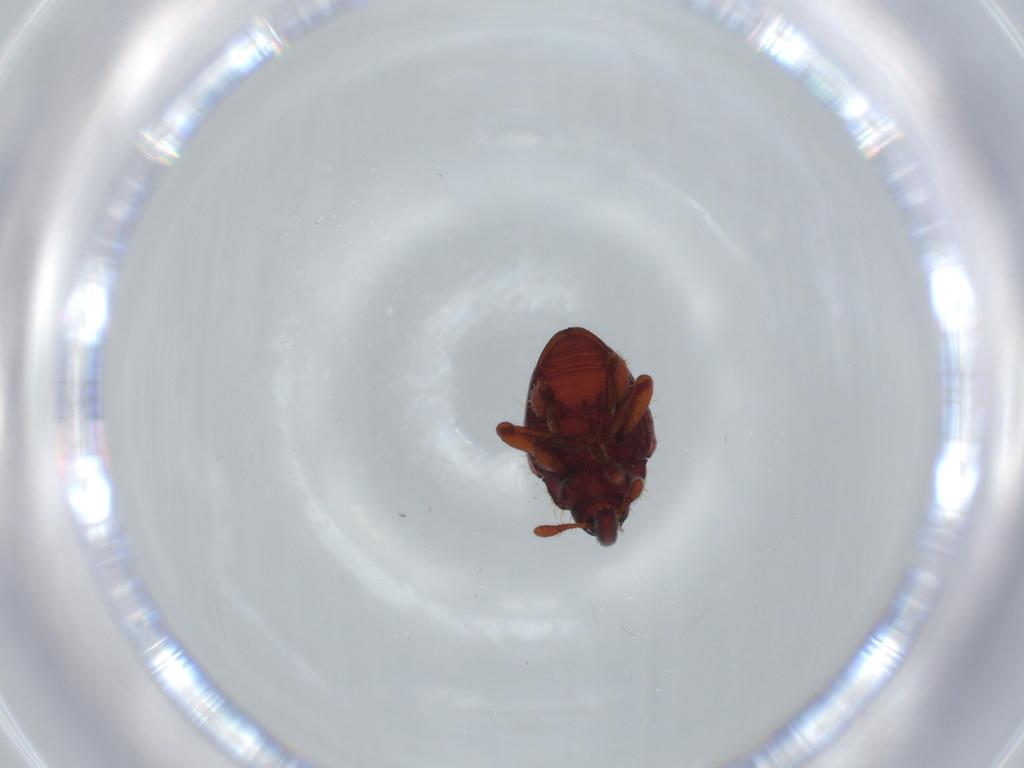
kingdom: Animalia
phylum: Arthropoda
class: Insecta
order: Coleoptera
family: Curculionidae
